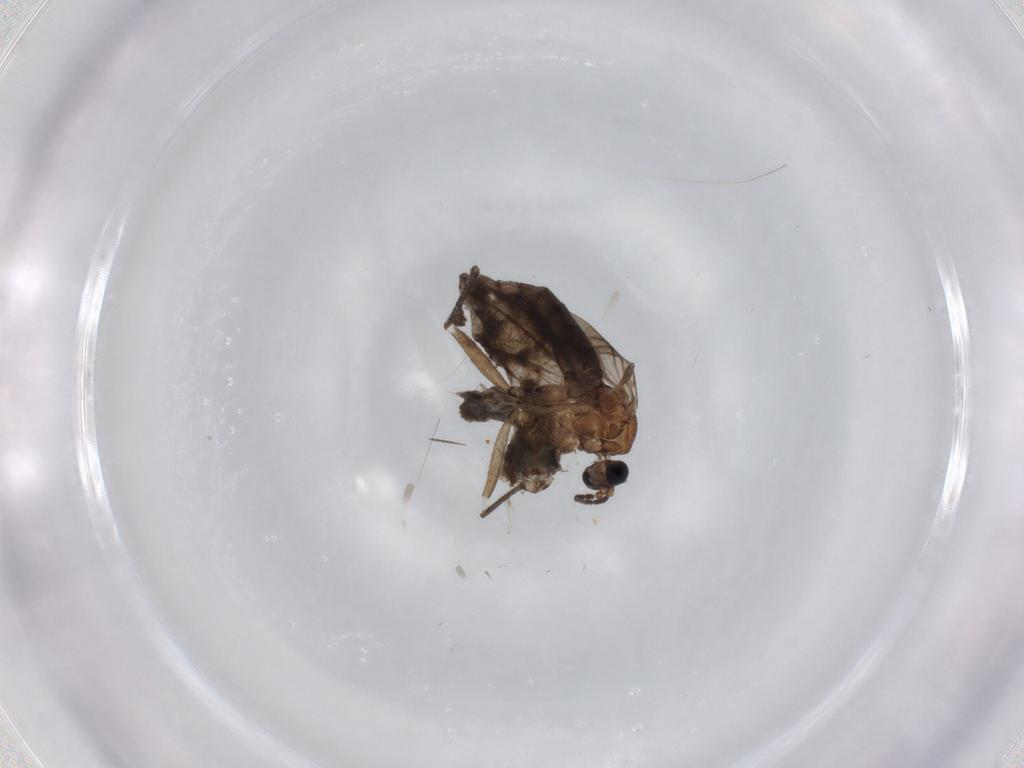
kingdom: Animalia
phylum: Arthropoda
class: Insecta
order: Diptera
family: Sciaridae
